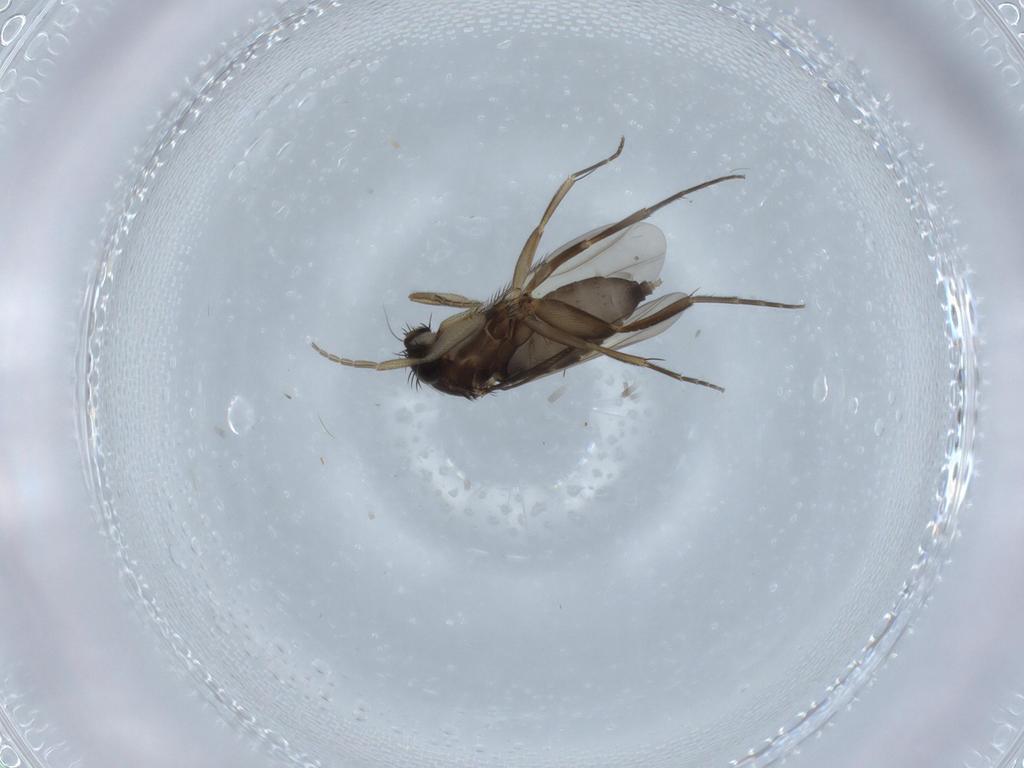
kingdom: Animalia
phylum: Arthropoda
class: Insecta
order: Diptera
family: Phoridae
